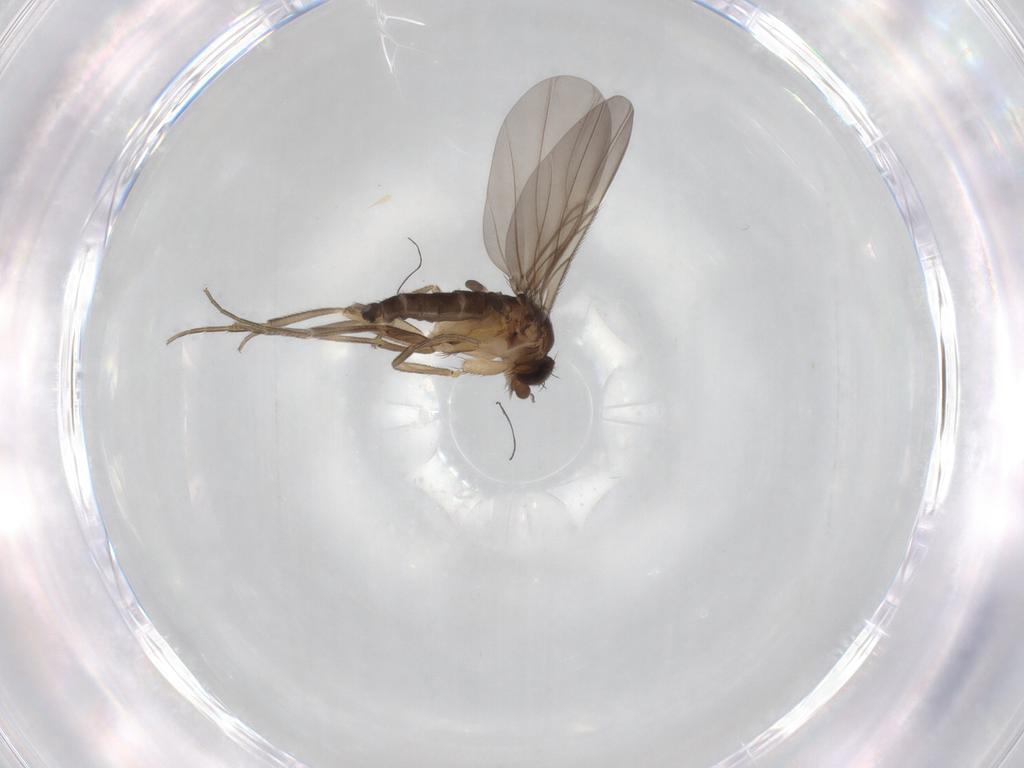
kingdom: Animalia
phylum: Arthropoda
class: Insecta
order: Diptera
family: Phoridae
